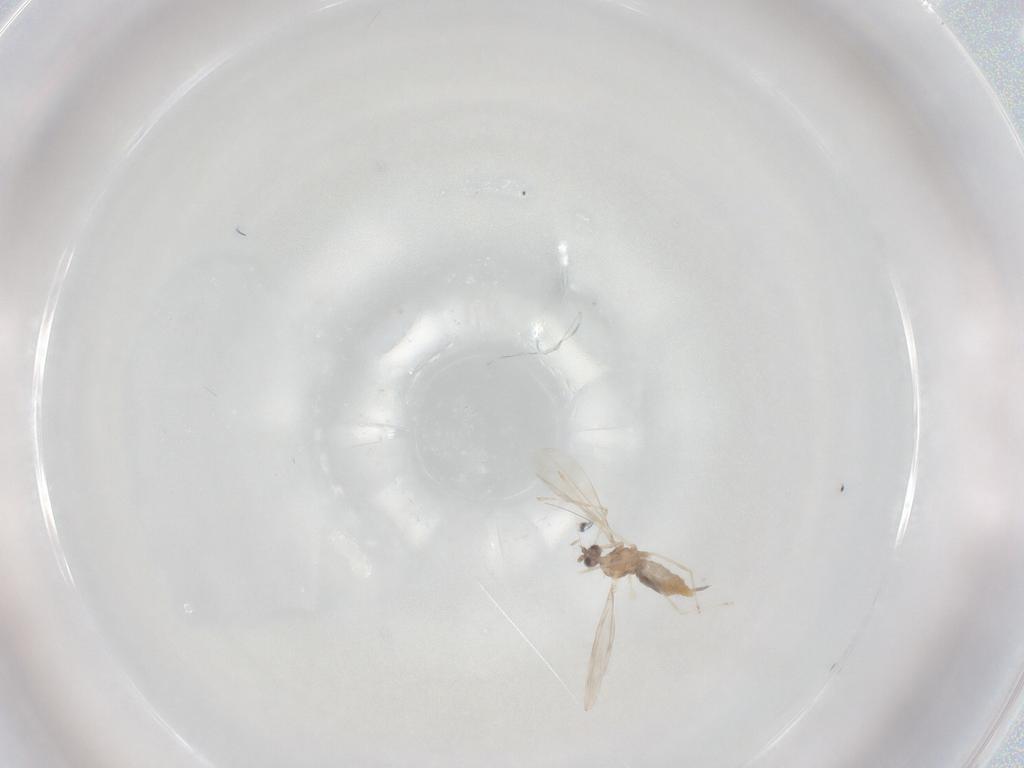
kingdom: Animalia
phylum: Arthropoda
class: Insecta
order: Diptera
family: Cecidomyiidae
